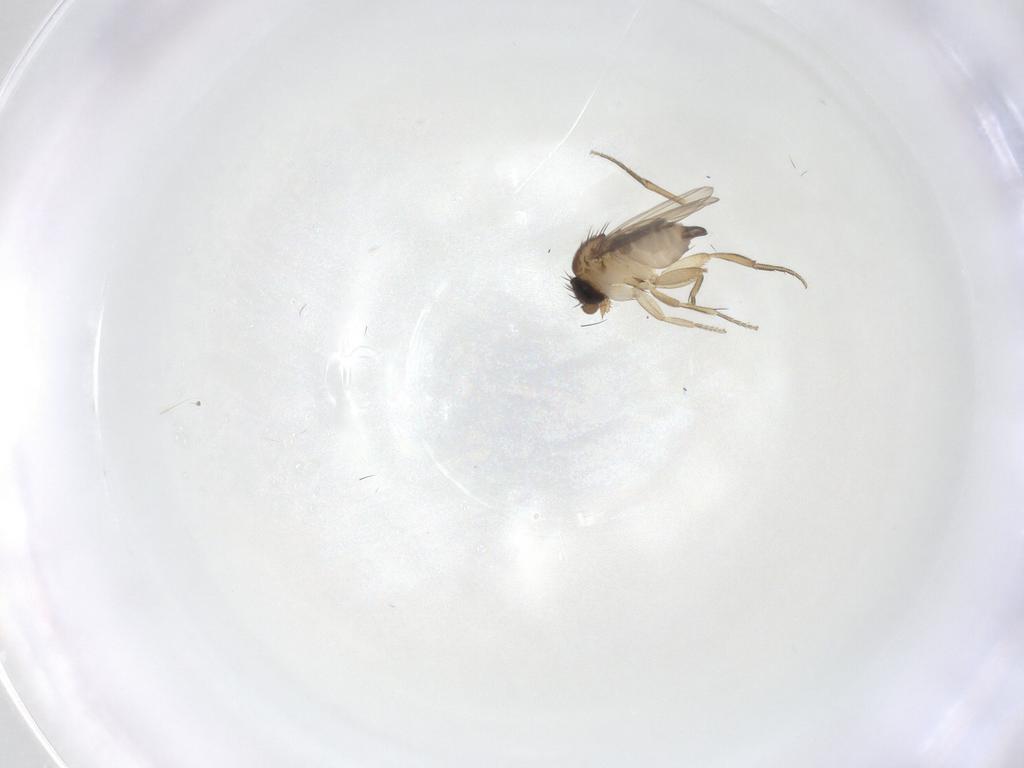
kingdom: Animalia
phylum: Arthropoda
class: Insecta
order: Diptera
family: Phoridae
